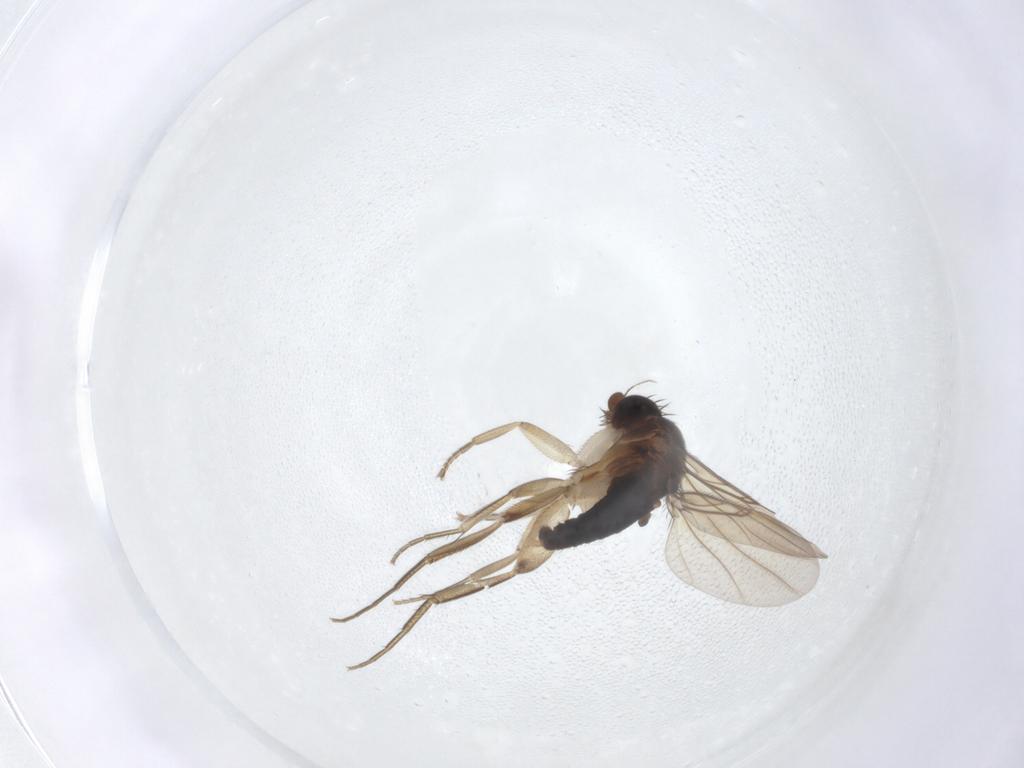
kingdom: Animalia
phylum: Arthropoda
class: Insecta
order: Diptera
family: Phoridae
